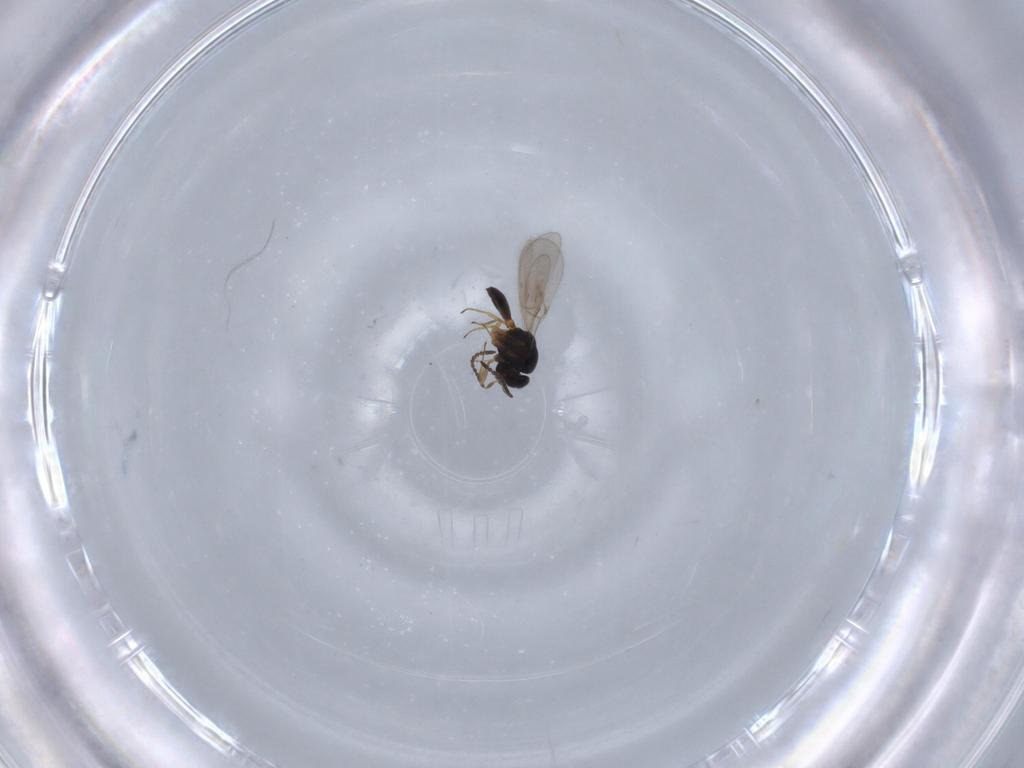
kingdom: Animalia
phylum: Arthropoda
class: Insecta
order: Hymenoptera
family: Scelionidae
